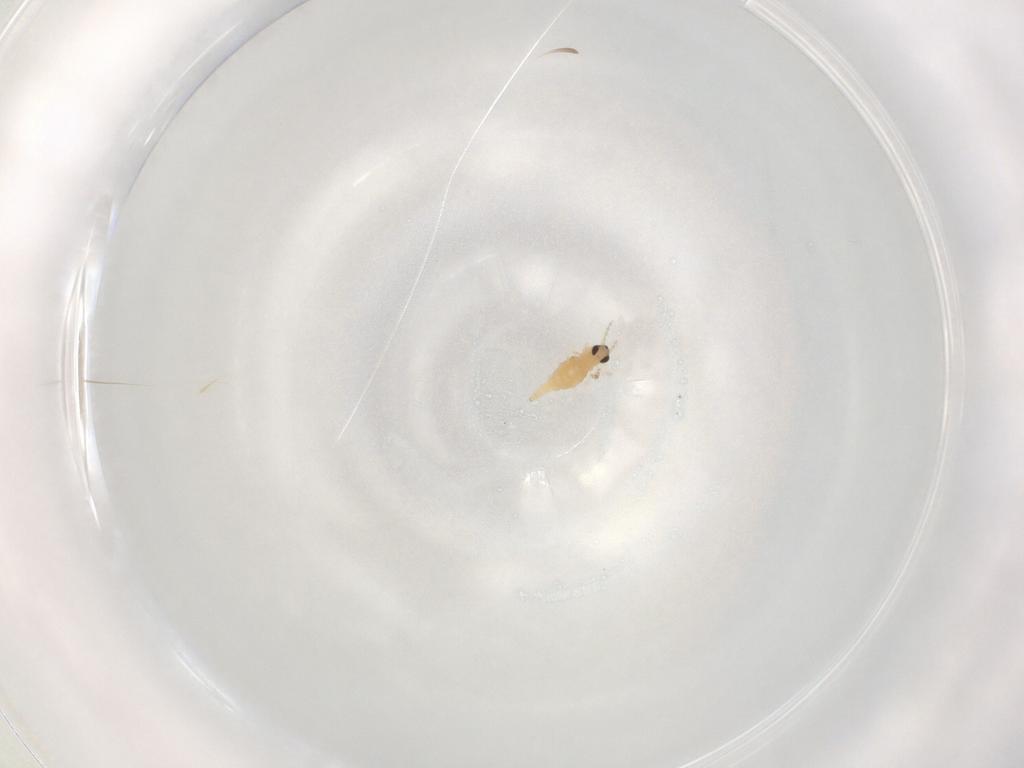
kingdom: Animalia
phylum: Arthropoda
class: Insecta
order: Diptera
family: Cecidomyiidae
